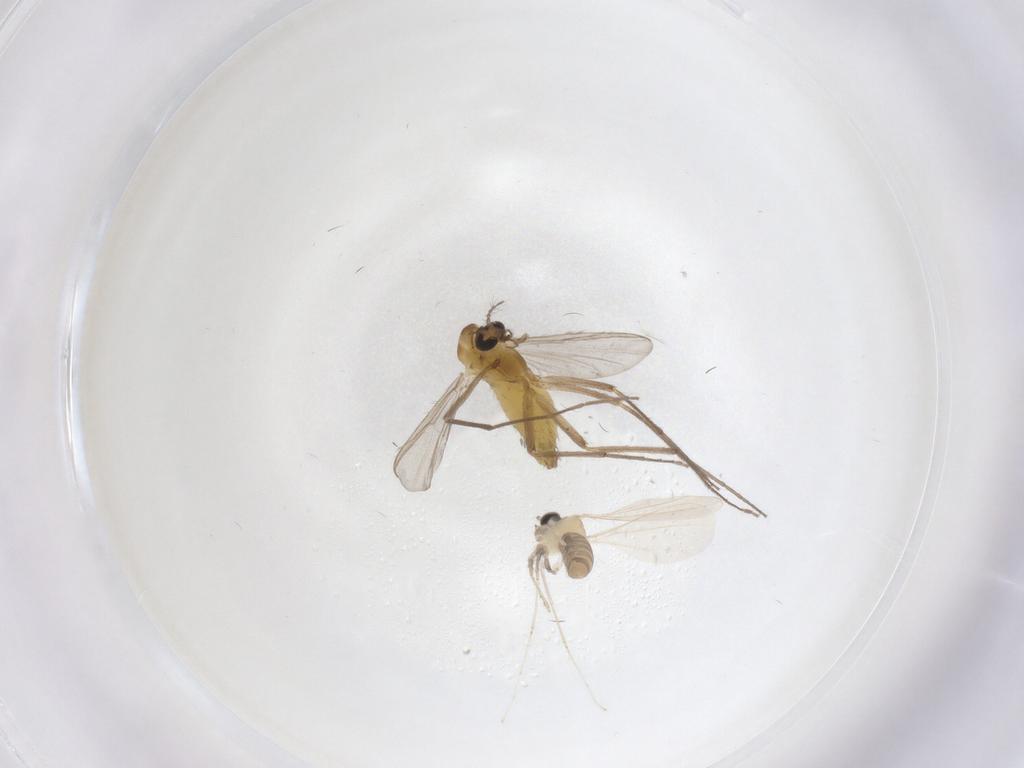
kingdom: Animalia
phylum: Arthropoda
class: Insecta
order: Diptera
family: Chironomidae
